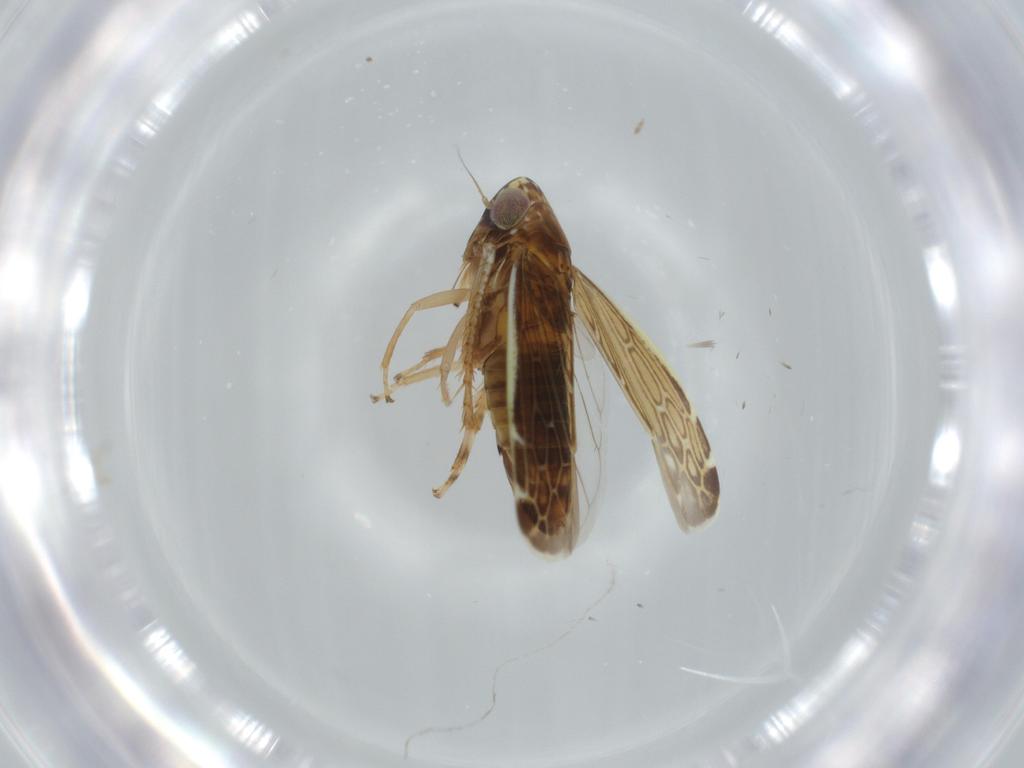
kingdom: Animalia
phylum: Arthropoda
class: Insecta
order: Hemiptera
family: Cicadellidae
